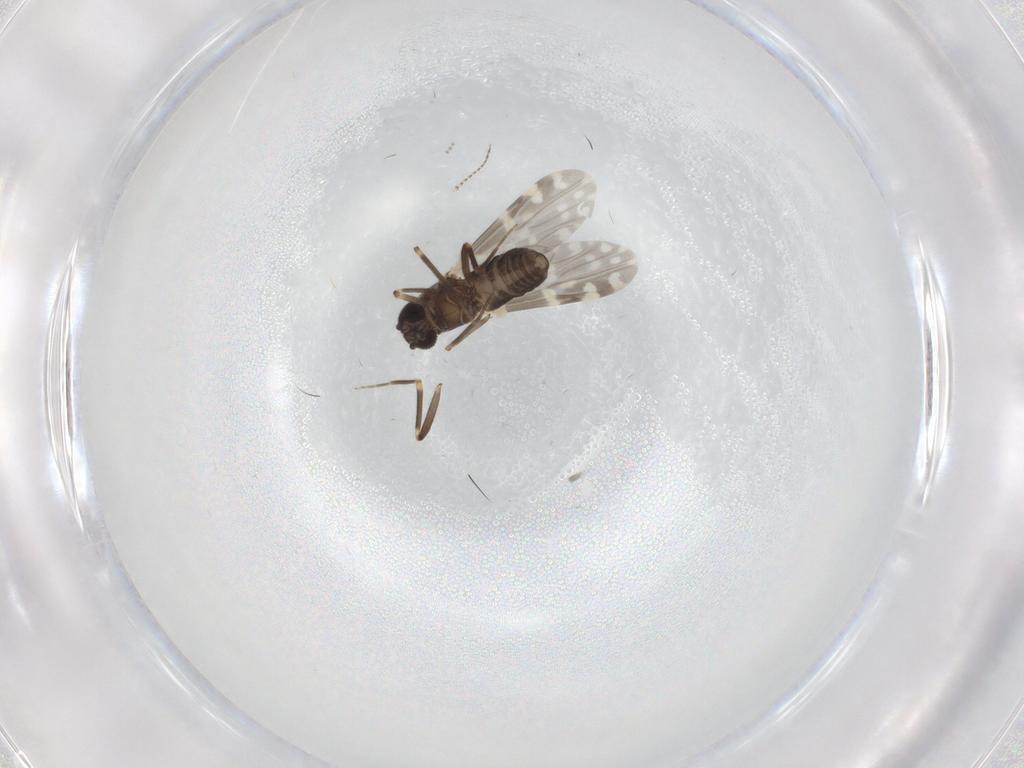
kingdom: Animalia
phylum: Arthropoda
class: Insecta
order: Diptera
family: Ceratopogonidae
